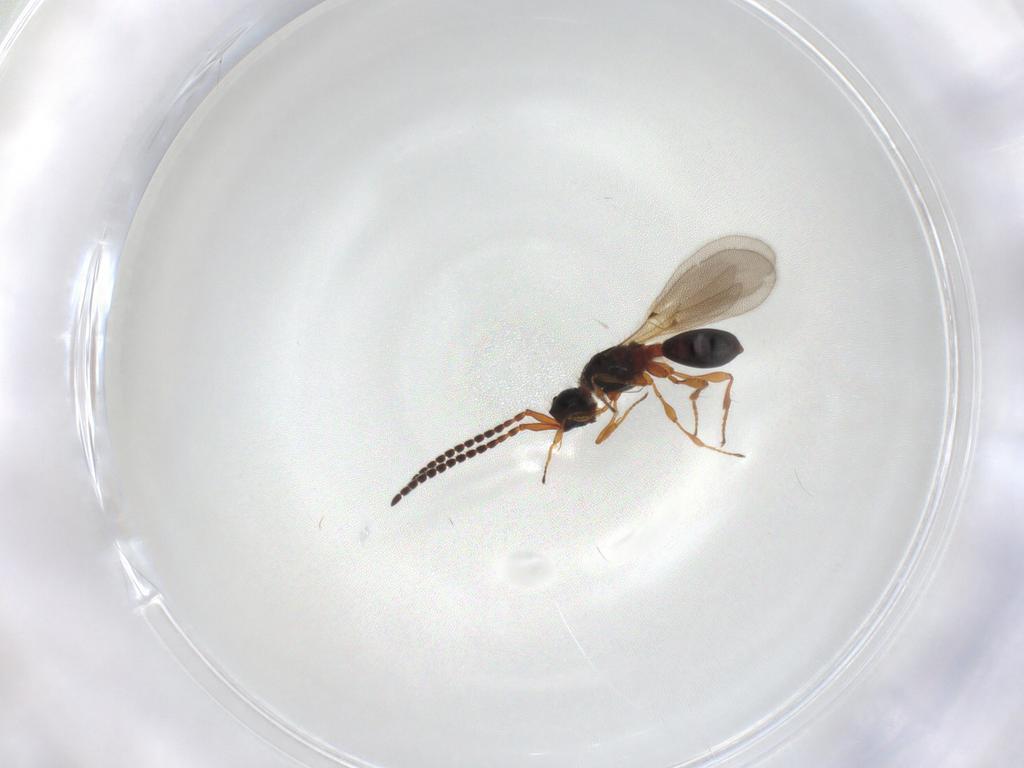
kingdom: Animalia
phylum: Arthropoda
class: Insecta
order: Hymenoptera
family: Diapriidae
